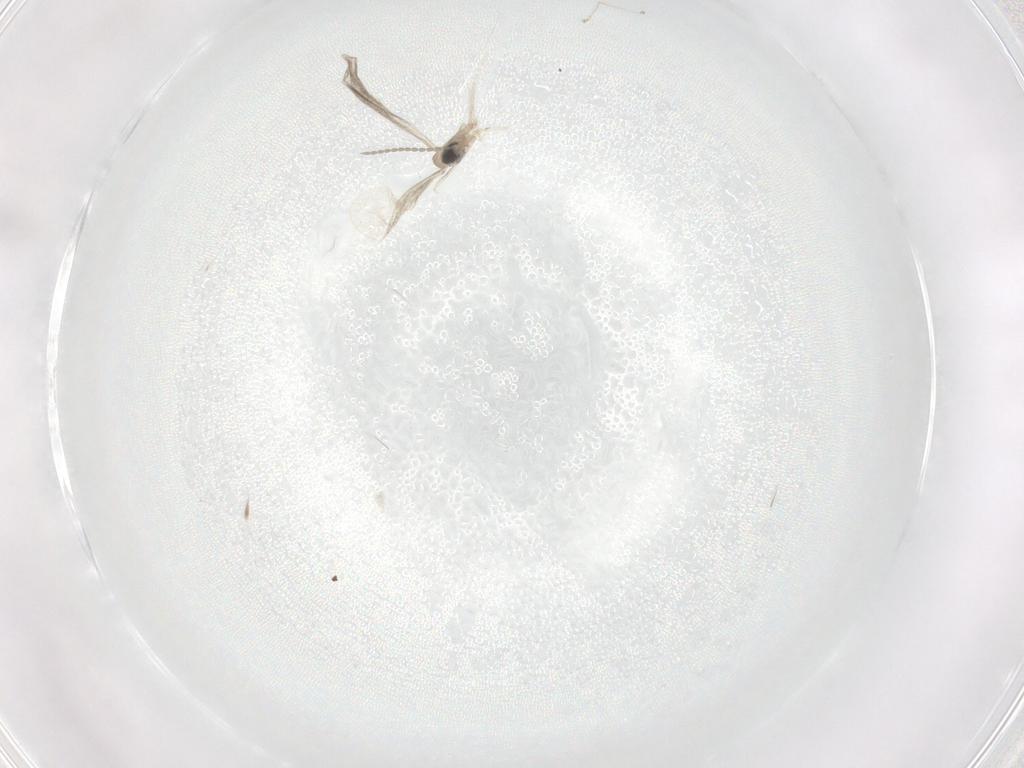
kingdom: Animalia
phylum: Arthropoda
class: Insecta
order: Diptera
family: Cecidomyiidae
